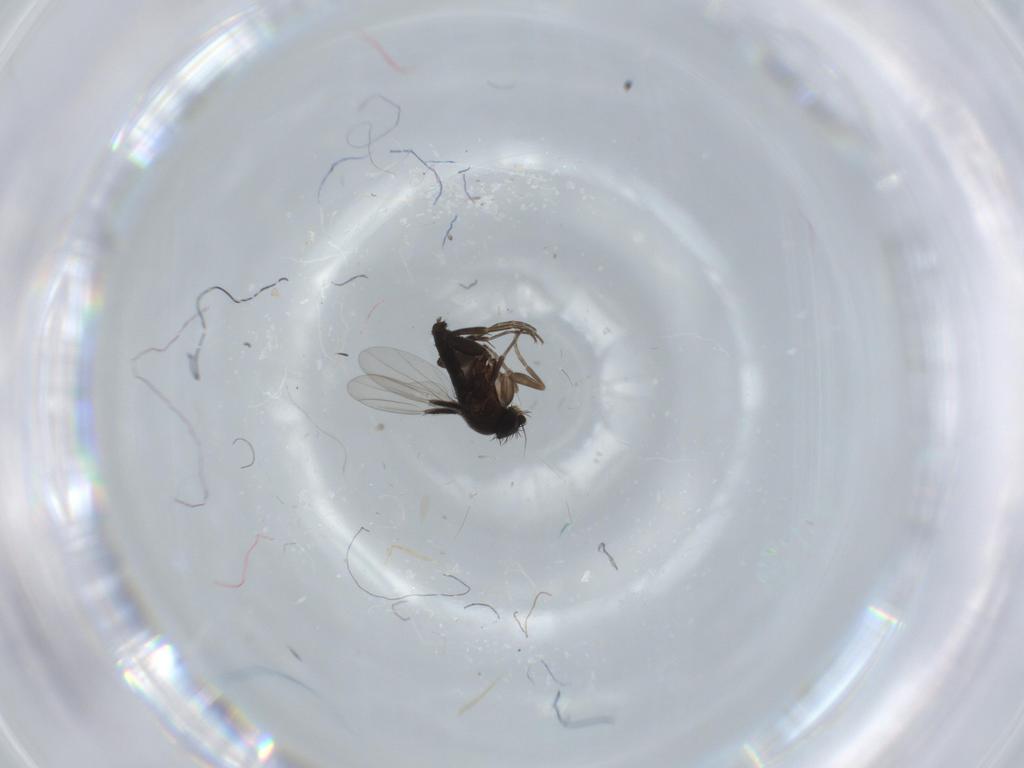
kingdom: Animalia
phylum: Arthropoda
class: Insecta
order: Diptera
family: Phoridae
